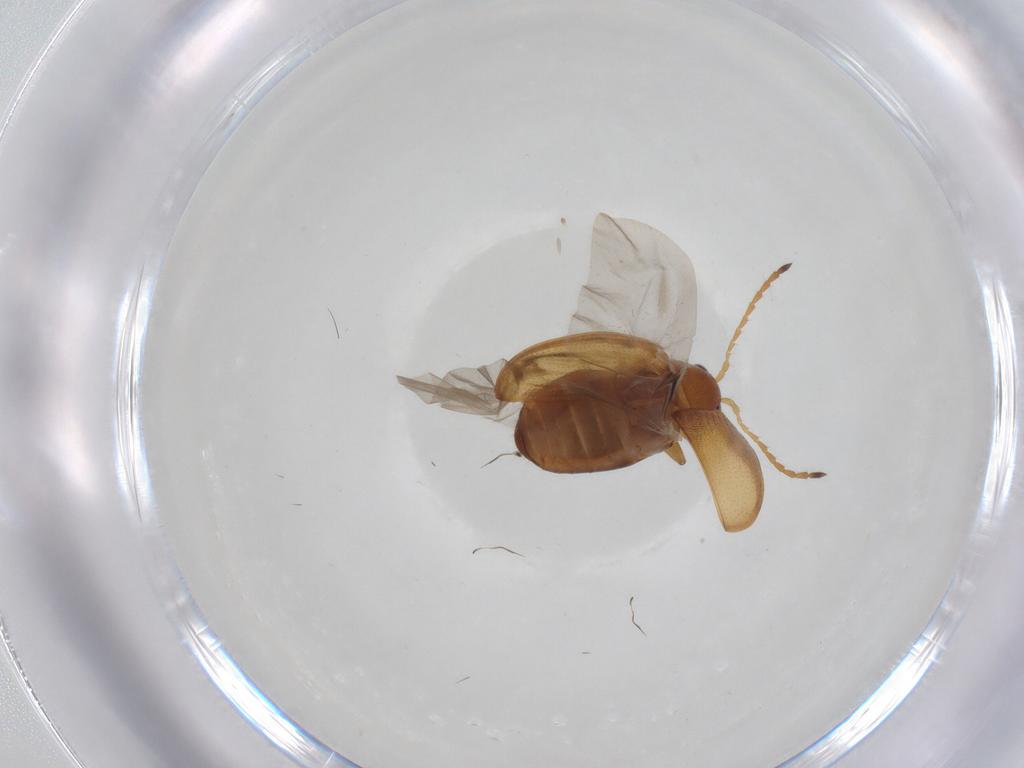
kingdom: Animalia
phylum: Arthropoda
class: Insecta
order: Coleoptera
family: Chrysomelidae
